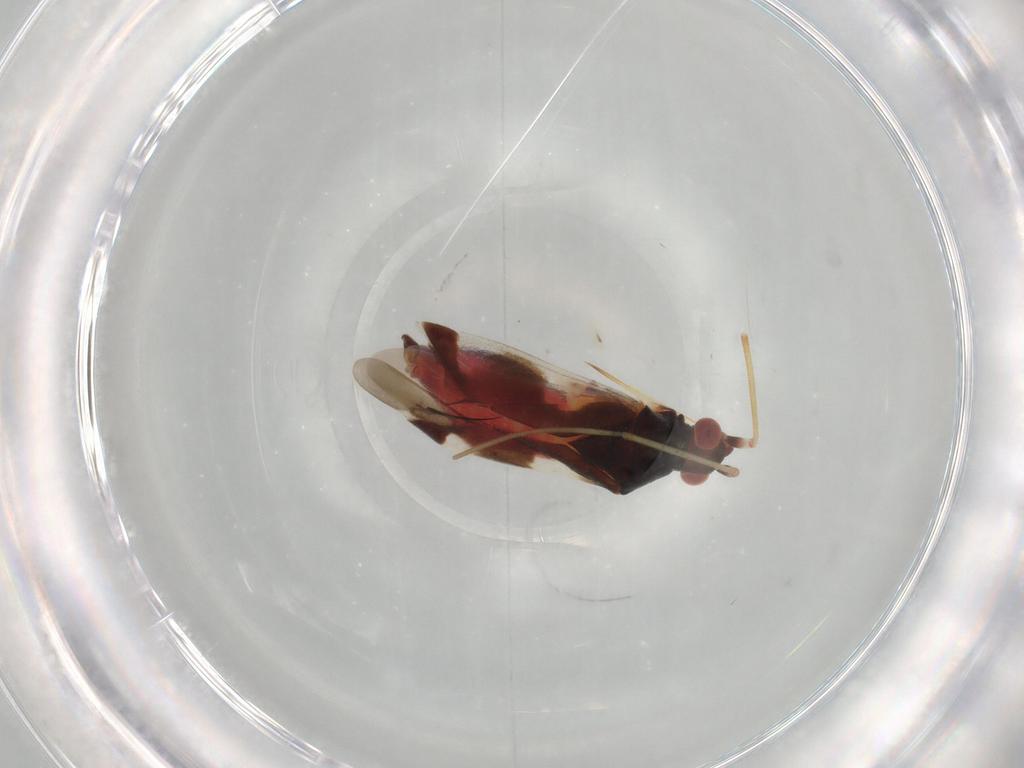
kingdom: Animalia
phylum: Arthropoda
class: Insecta
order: Hemiptera
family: Miridae
